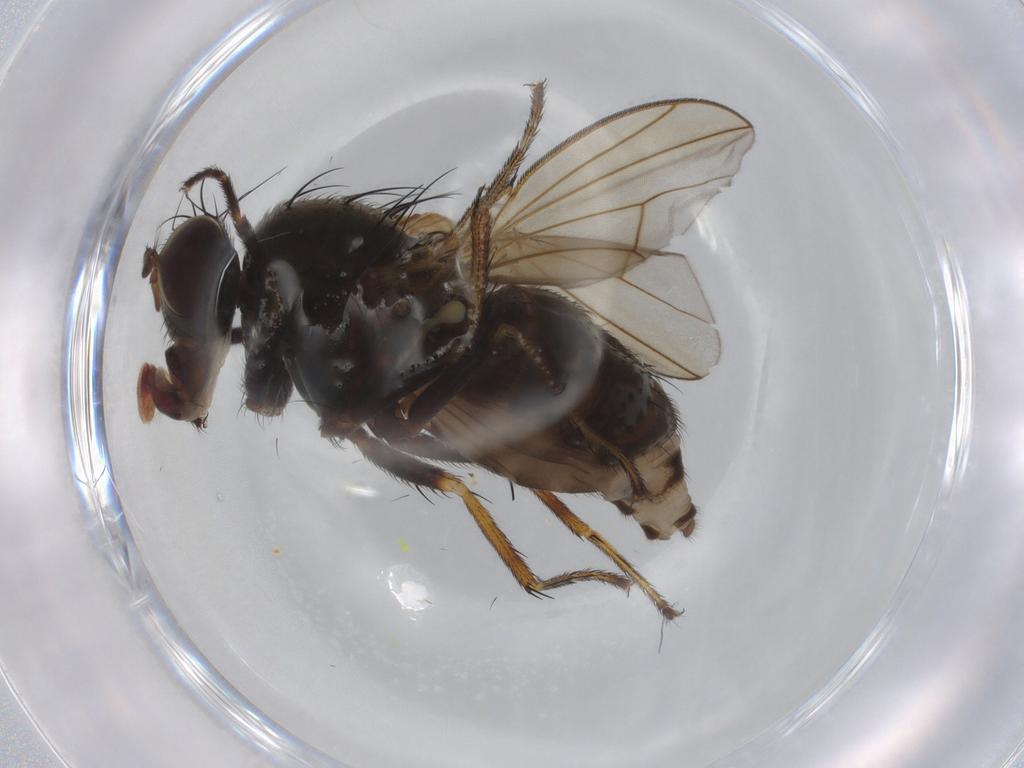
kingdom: Animalia
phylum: Arthropoda
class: Insecta
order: Diptera
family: Ephydridae
